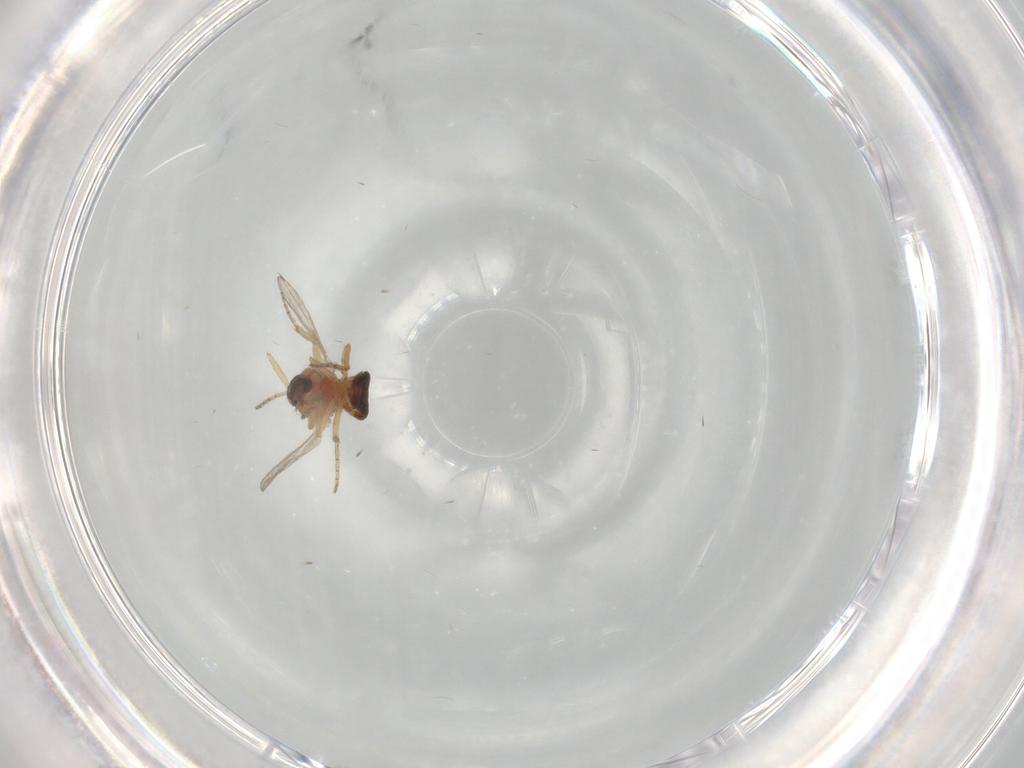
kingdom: Animalia
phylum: Arthropoda
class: Insecta
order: Diptera
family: Ceratopogonidae
